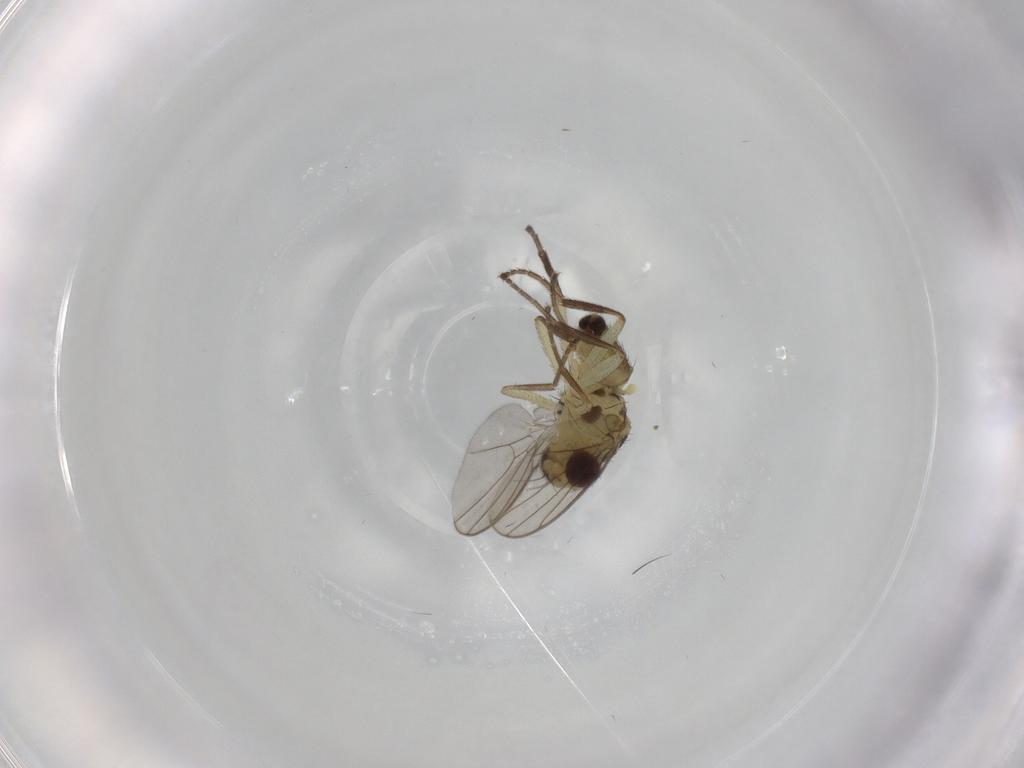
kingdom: Animalia
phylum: Arthropoda
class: Insecta
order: Diptera
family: Agromyzidae
